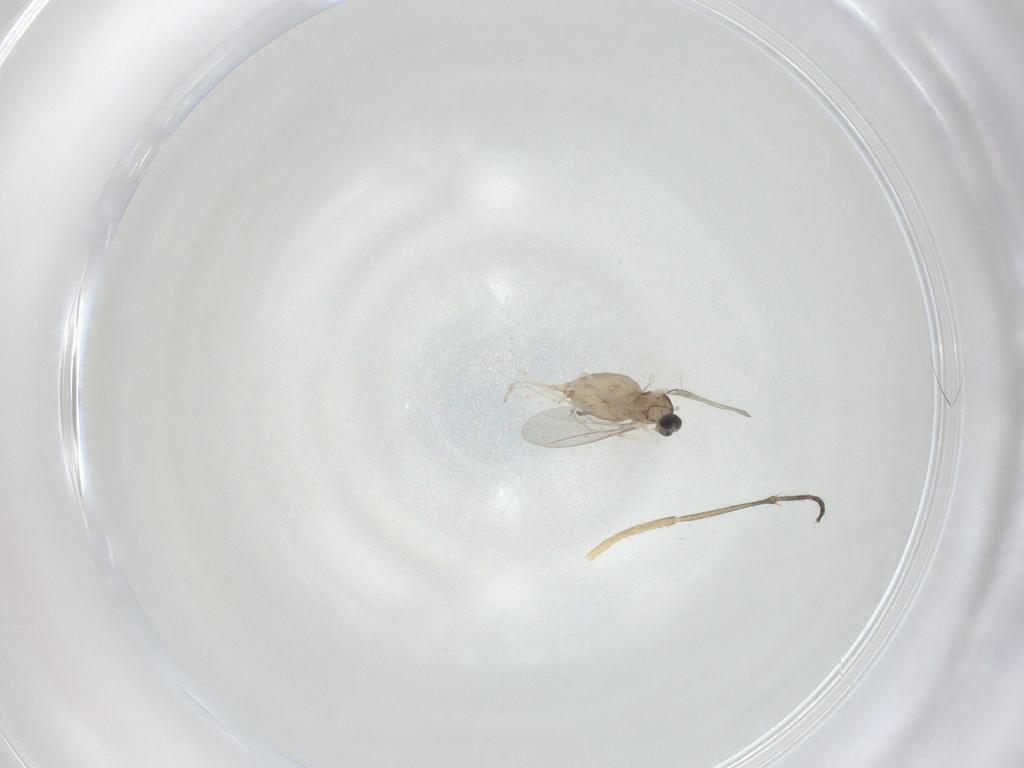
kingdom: Animalia
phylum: Arthropoda
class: Insecta
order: Diptera
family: Cecidomyiidae
